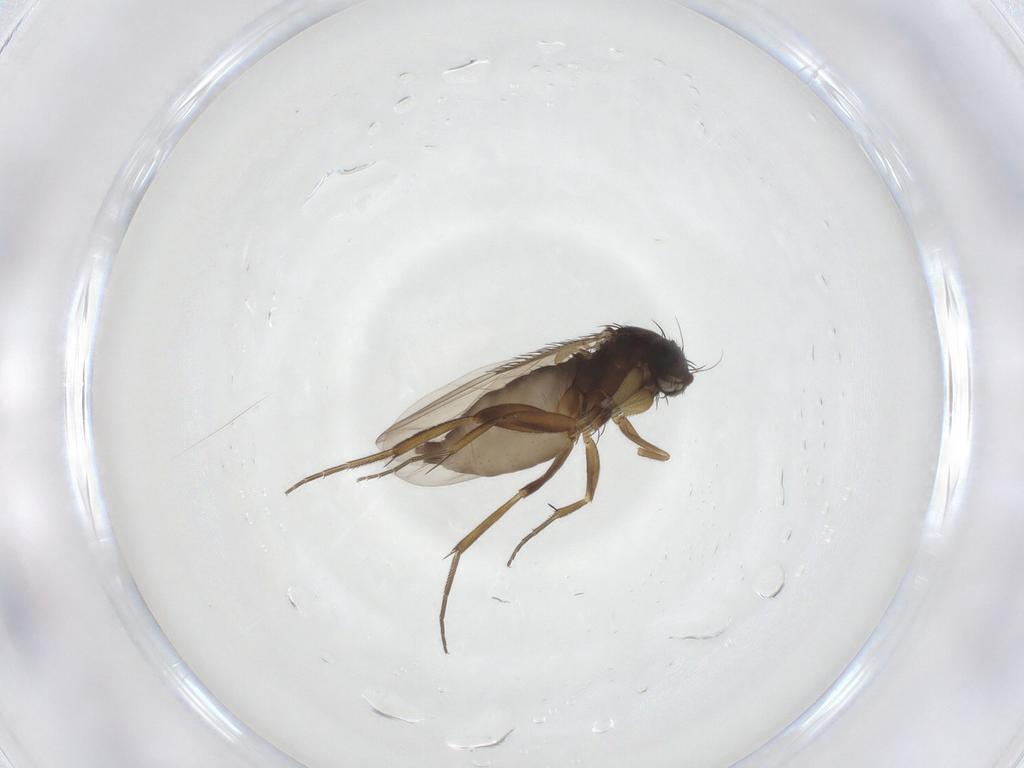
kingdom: Animalia
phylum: Arthropoda
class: Insecta
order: Diptera
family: Phoridae
